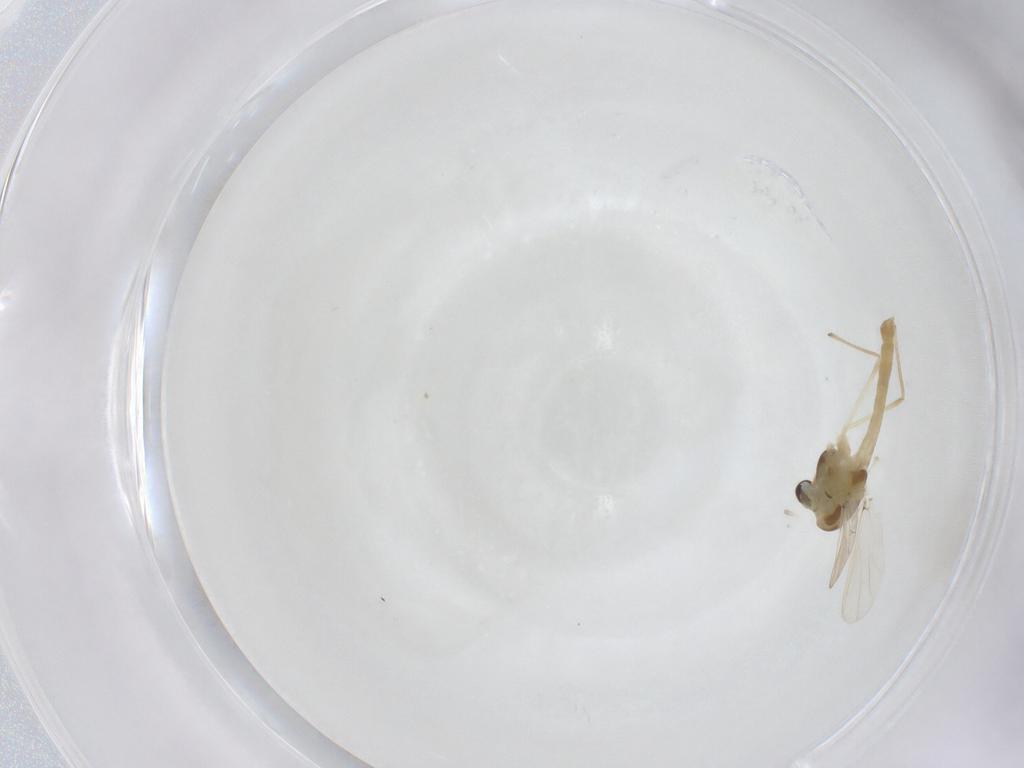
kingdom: Animalia
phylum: Arthropoda
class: Insecta
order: Diptera
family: Chironomidae
